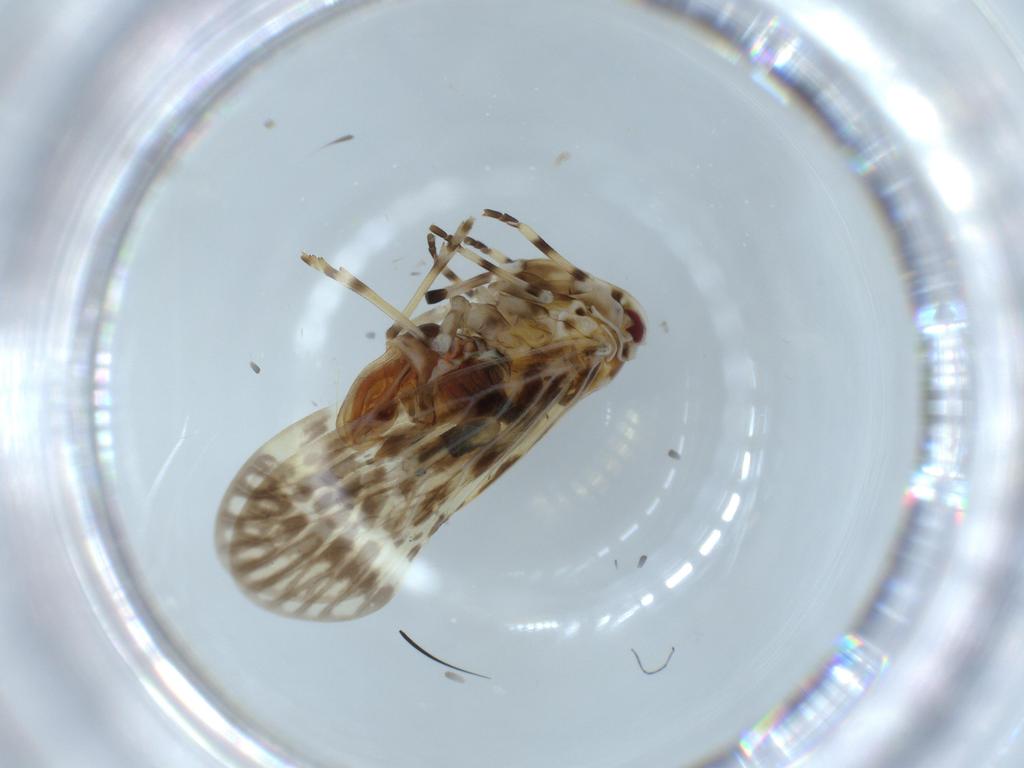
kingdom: Animalia
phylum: Arthropoda
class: Insecta
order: Hemiptera
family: Derbidae
